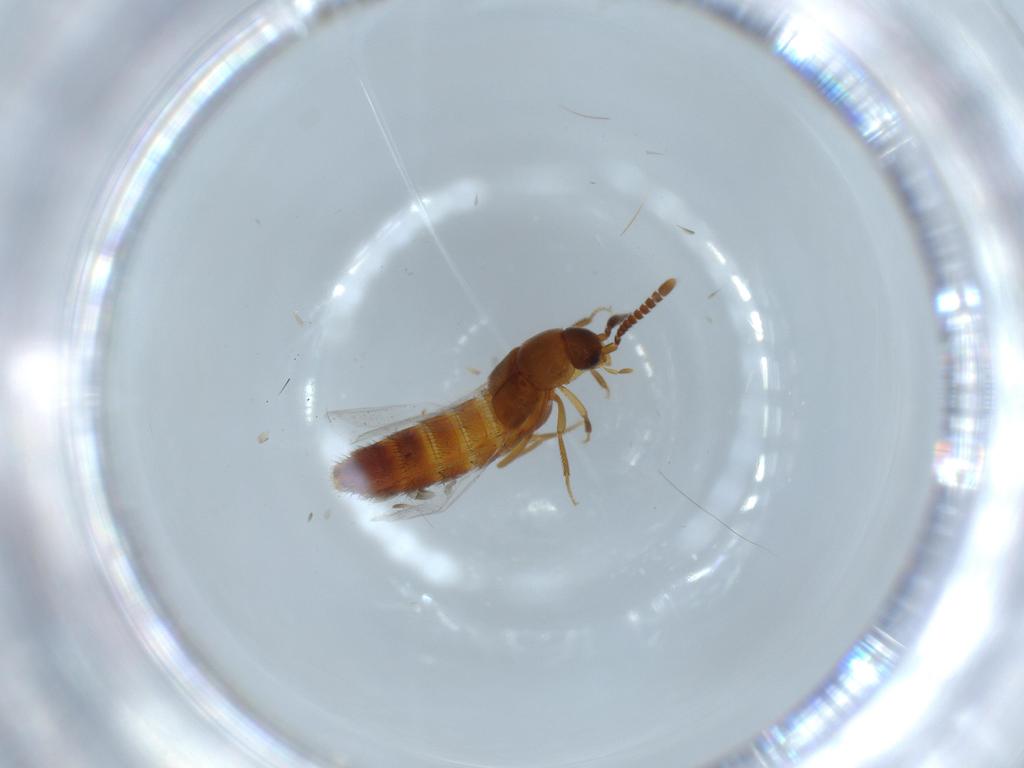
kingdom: Animalia
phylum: Arthropoda
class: Insecta
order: Coleoptera
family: Staphylinidae
